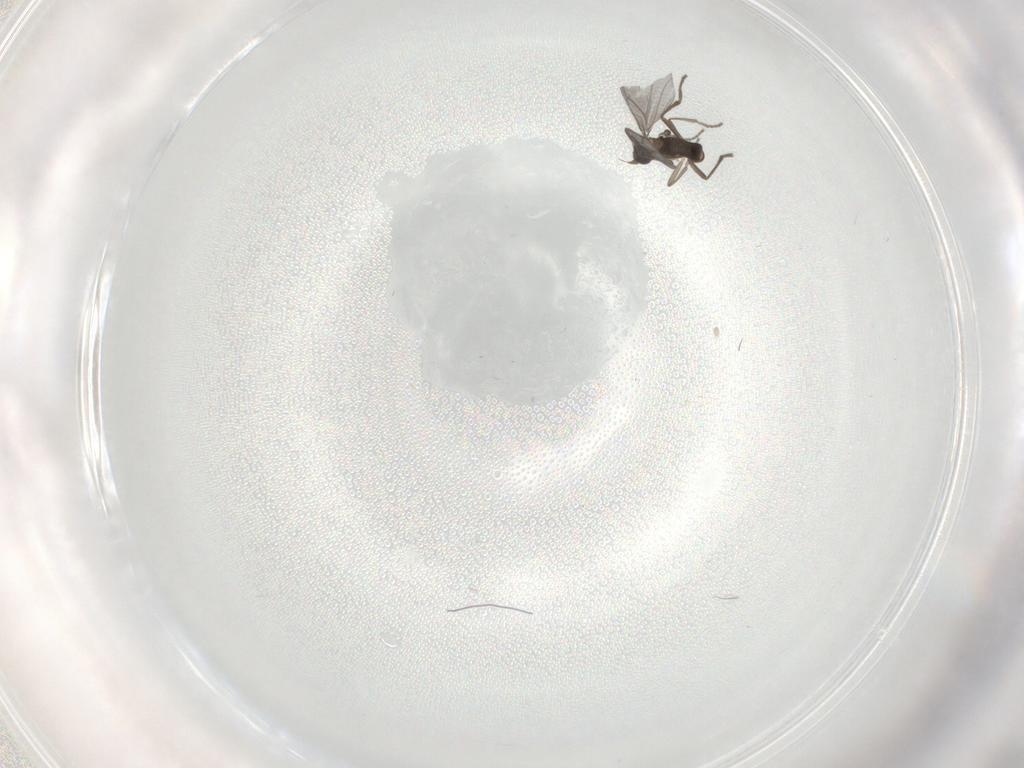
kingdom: Animalia
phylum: Arthropoda
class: Insecta
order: Diptera
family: Phoridae
